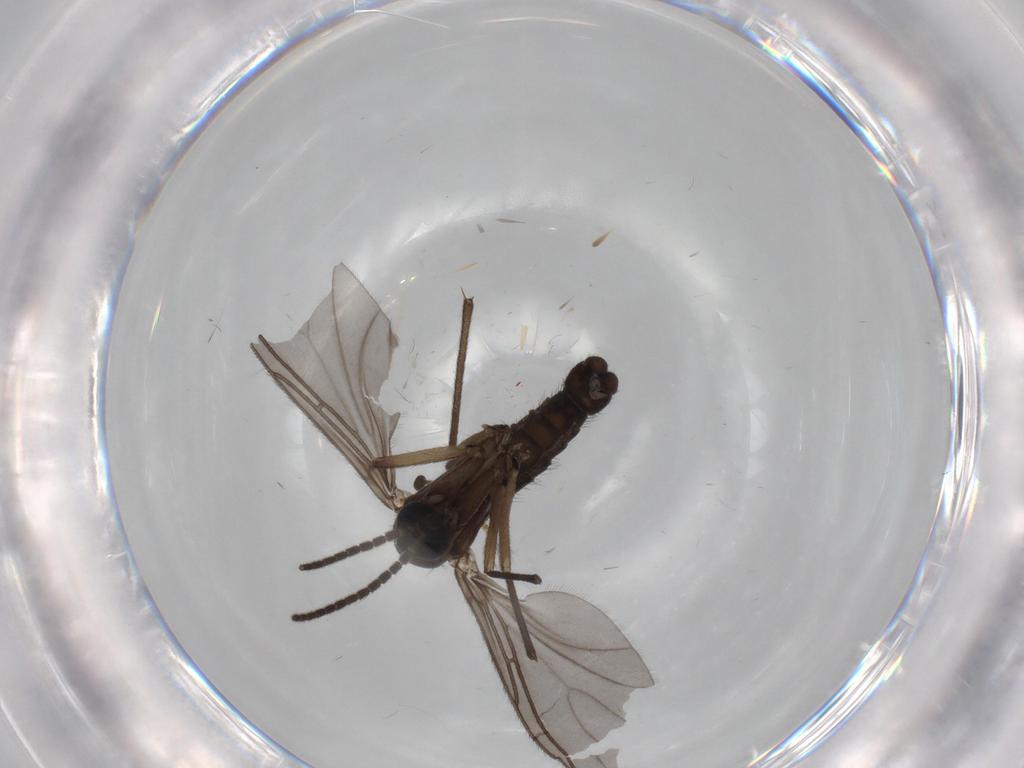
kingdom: Animalia
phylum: Arthropoda
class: Insecta
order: Diptera
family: Sciaridae
